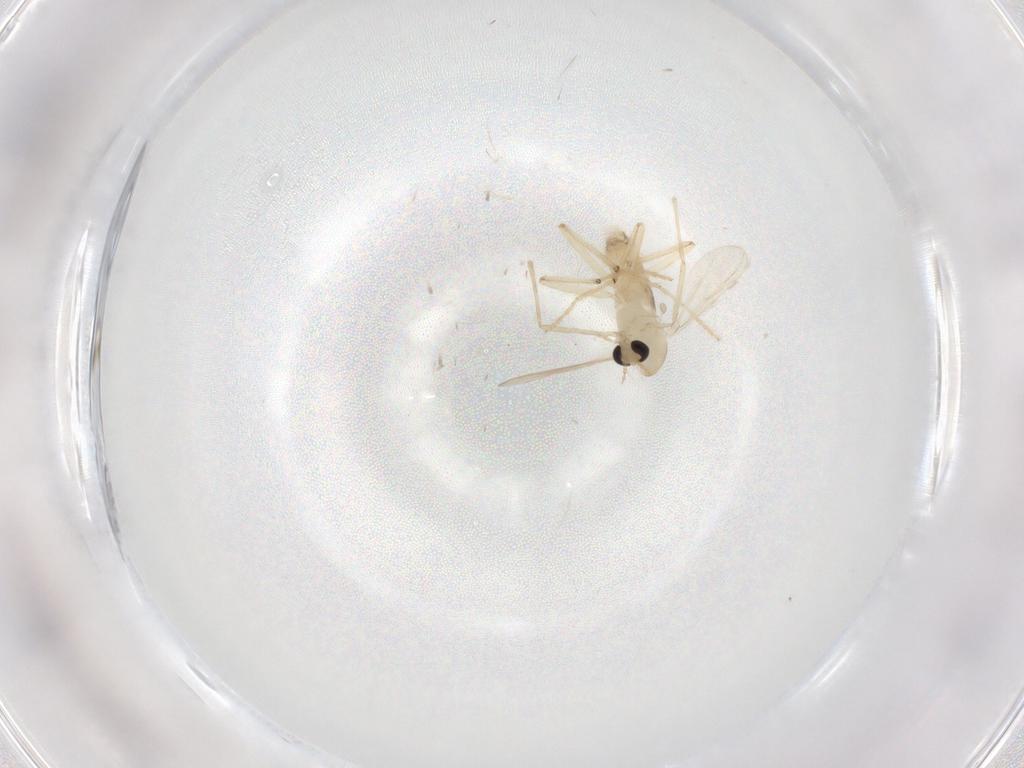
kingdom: Animalia
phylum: Arthropoda
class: Insecta
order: Diptera
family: Chironomidae
